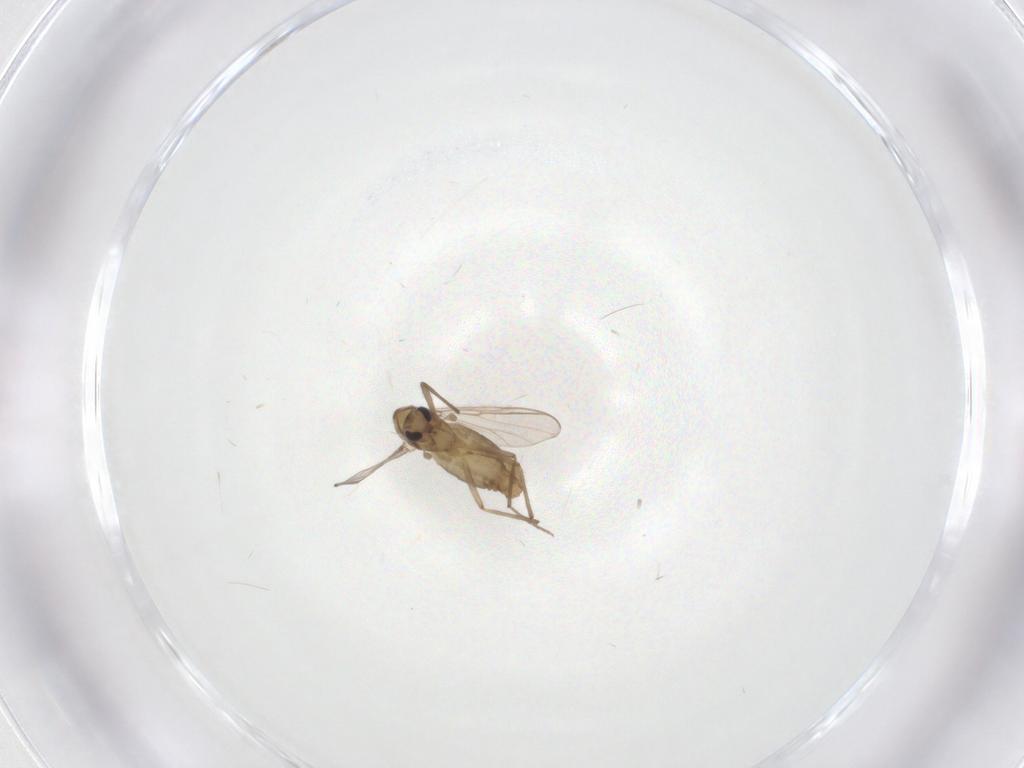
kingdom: Animalia
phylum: Arthropoda
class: Insecta
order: Diptera
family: Chironomidae
